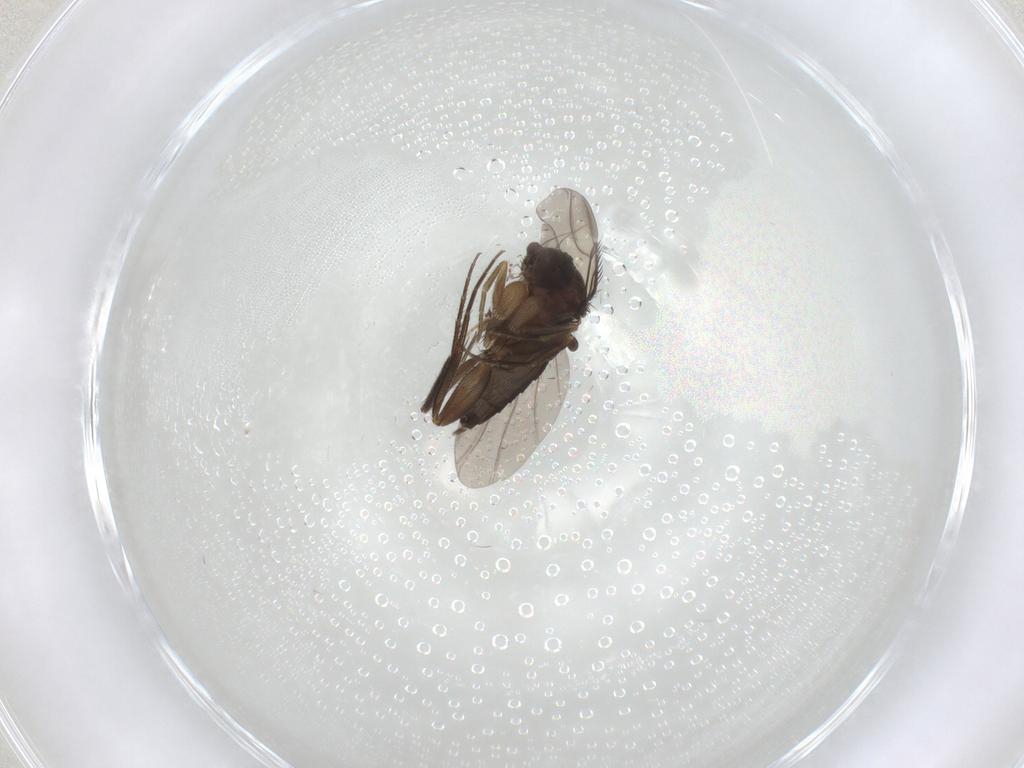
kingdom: Animalia
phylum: Arthropoda
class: Insecta
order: Diptera
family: Phoridae
